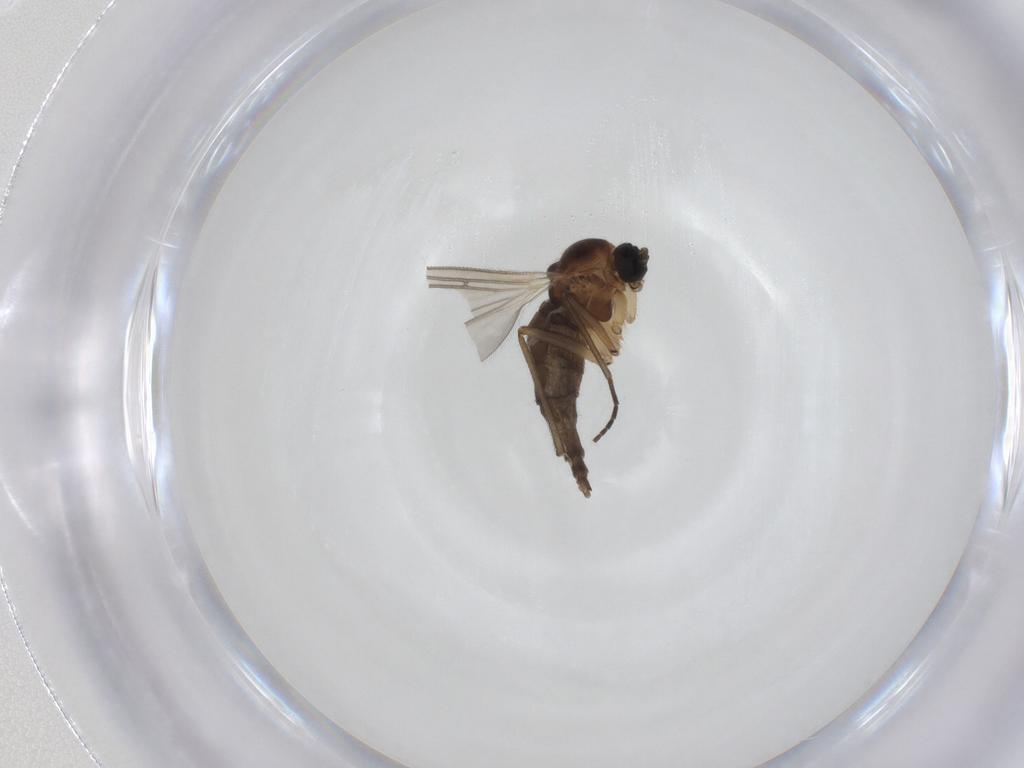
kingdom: Animalia
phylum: Arthropoda
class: Insecta
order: Diptera
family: Sciaridae
